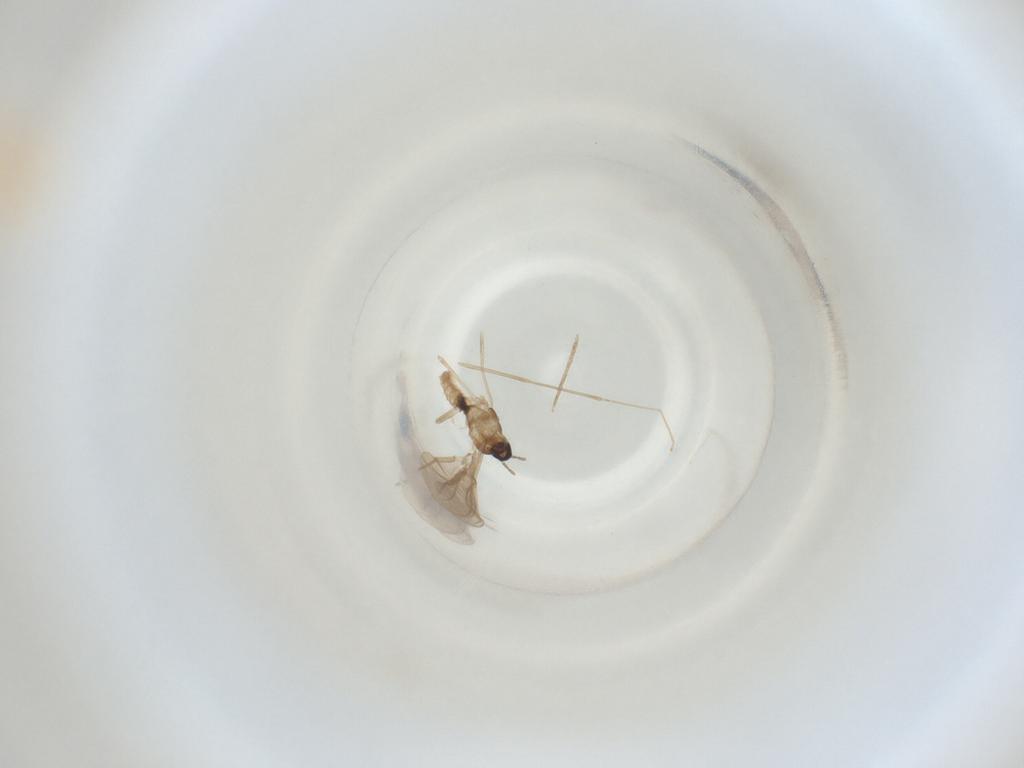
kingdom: Animalia
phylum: Arthropoda
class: Insecta
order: Diptera
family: Cecidomyiidae
